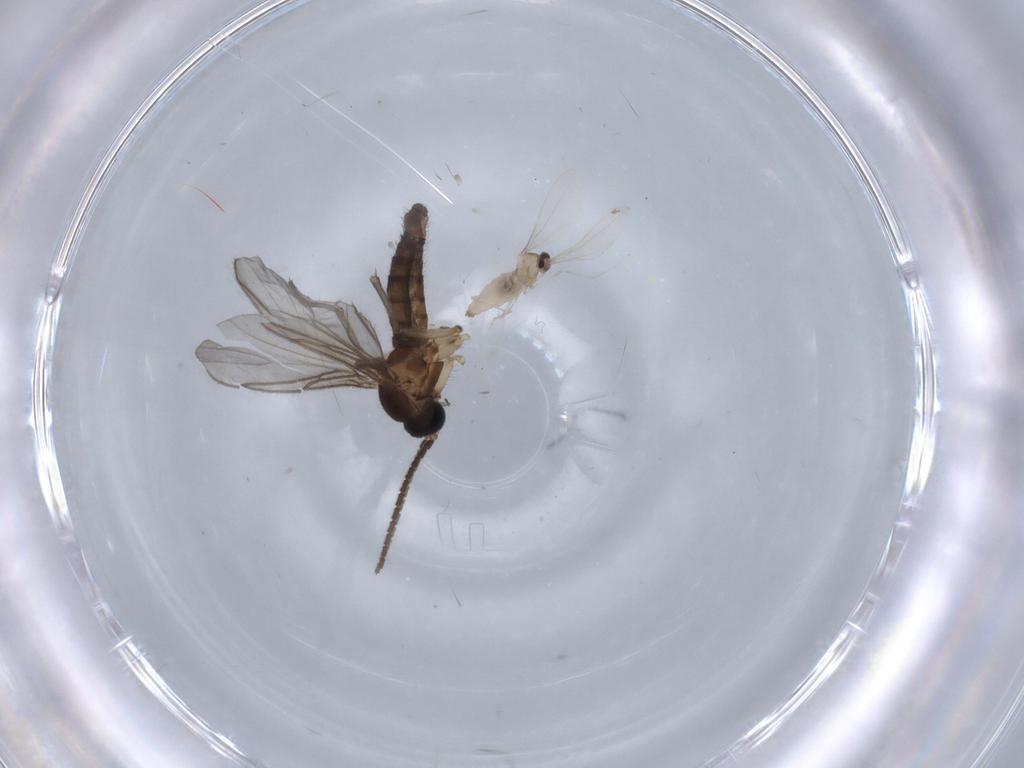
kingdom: Animalia
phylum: Arthropoda
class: Insecta
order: Diptera
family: Sciaridae
